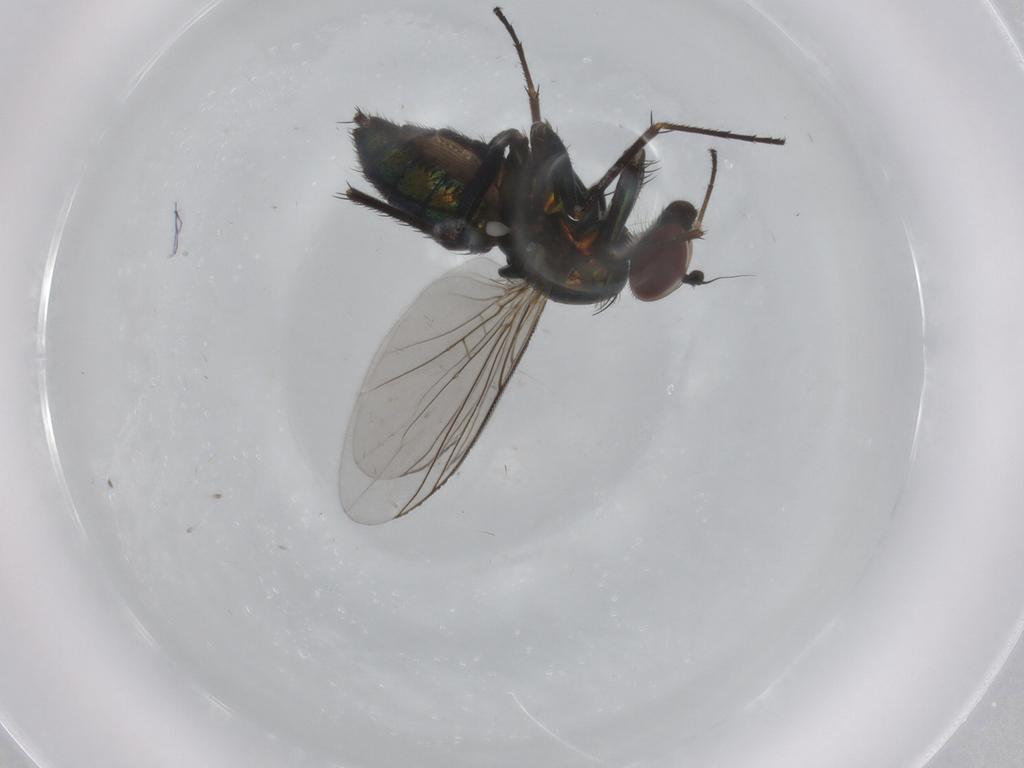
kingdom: Animalia
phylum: Arthropoda
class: Insecta
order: Diptera
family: Dolichopodidae
